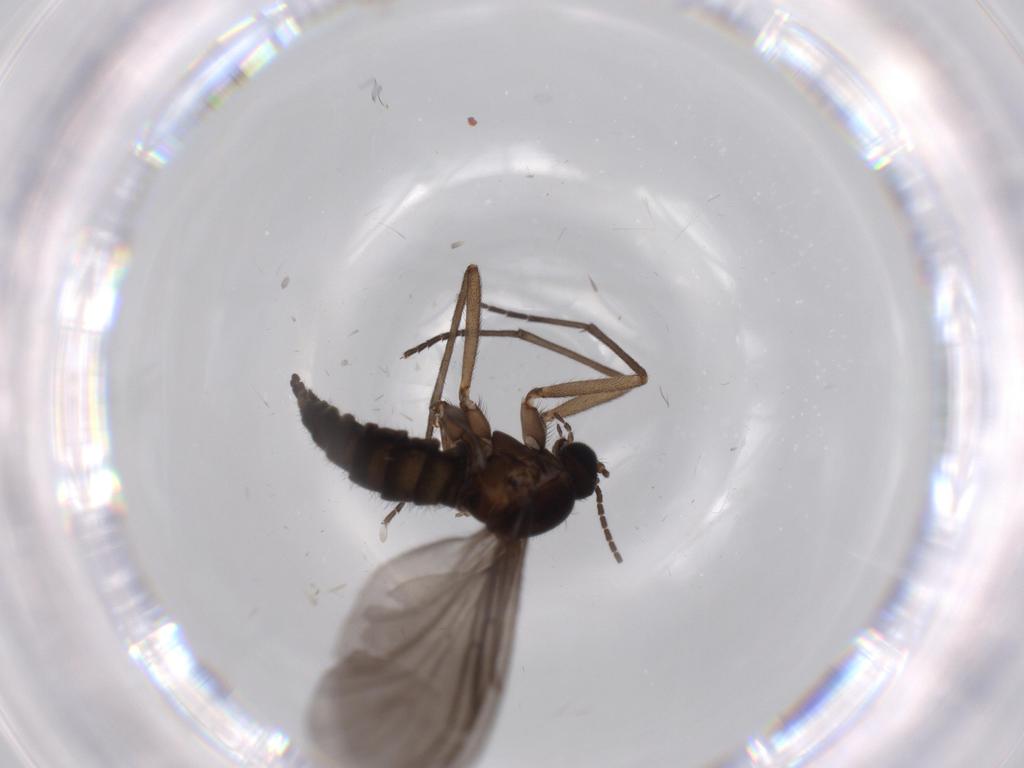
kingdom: Animalia
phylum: Arthropoda
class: Insecta
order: Diptera
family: Sciaridae
